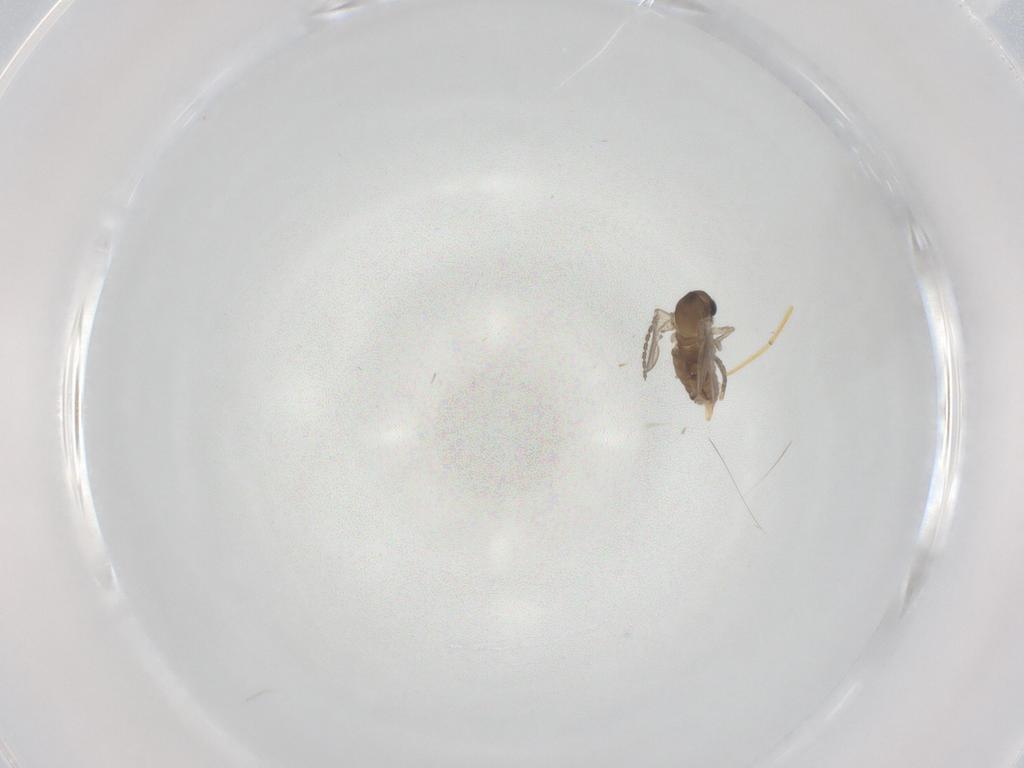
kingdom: Animalia
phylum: Arthropoda
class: Insecta
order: Diptera
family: Cecidomyiidae
